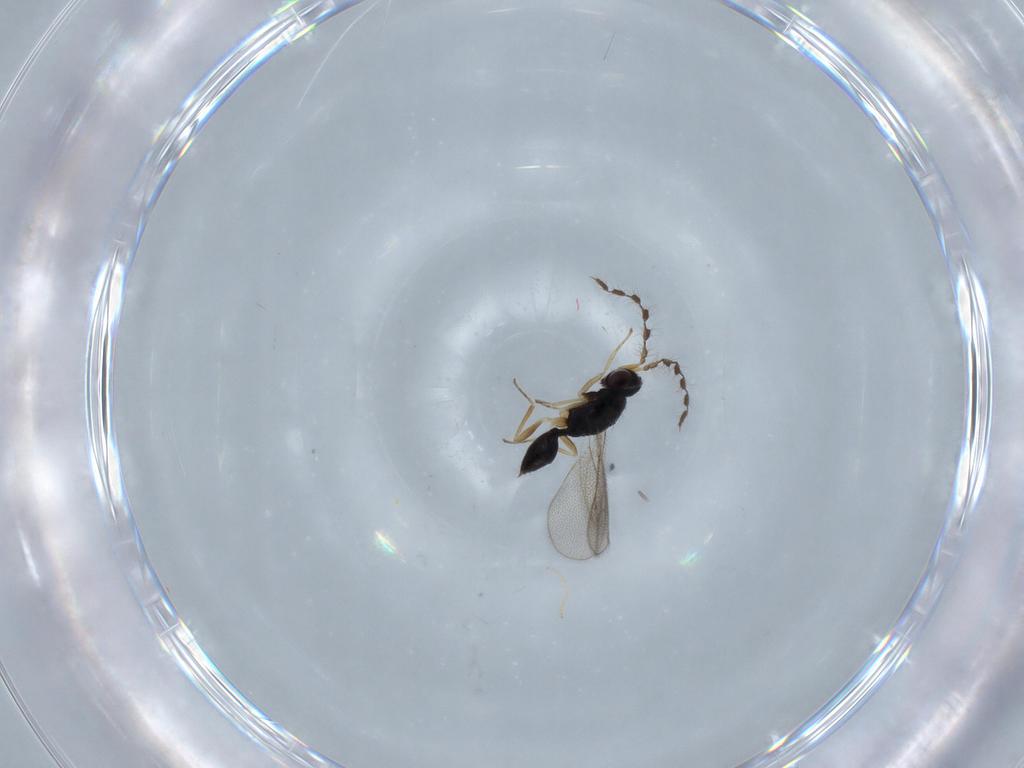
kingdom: Animalia
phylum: Arthropoda
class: Insecta
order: Hymenoptera
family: Eulophidae
